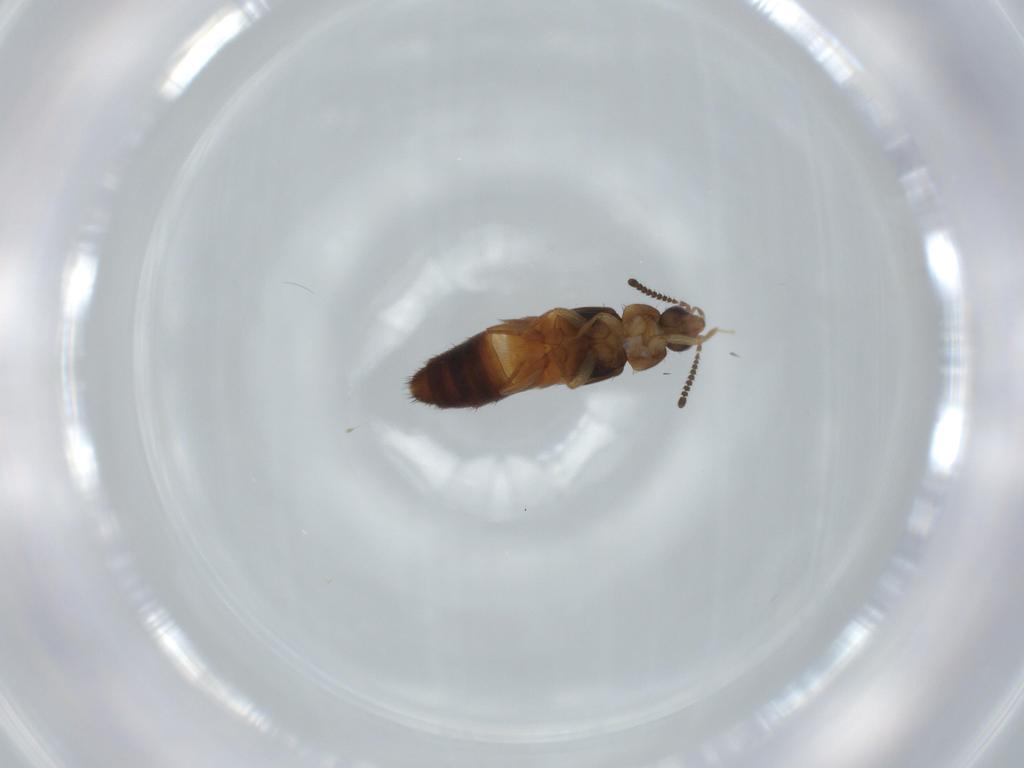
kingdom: Animalia
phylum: Arthropoda
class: Insecta
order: Coleoptera
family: Staphylinidae
